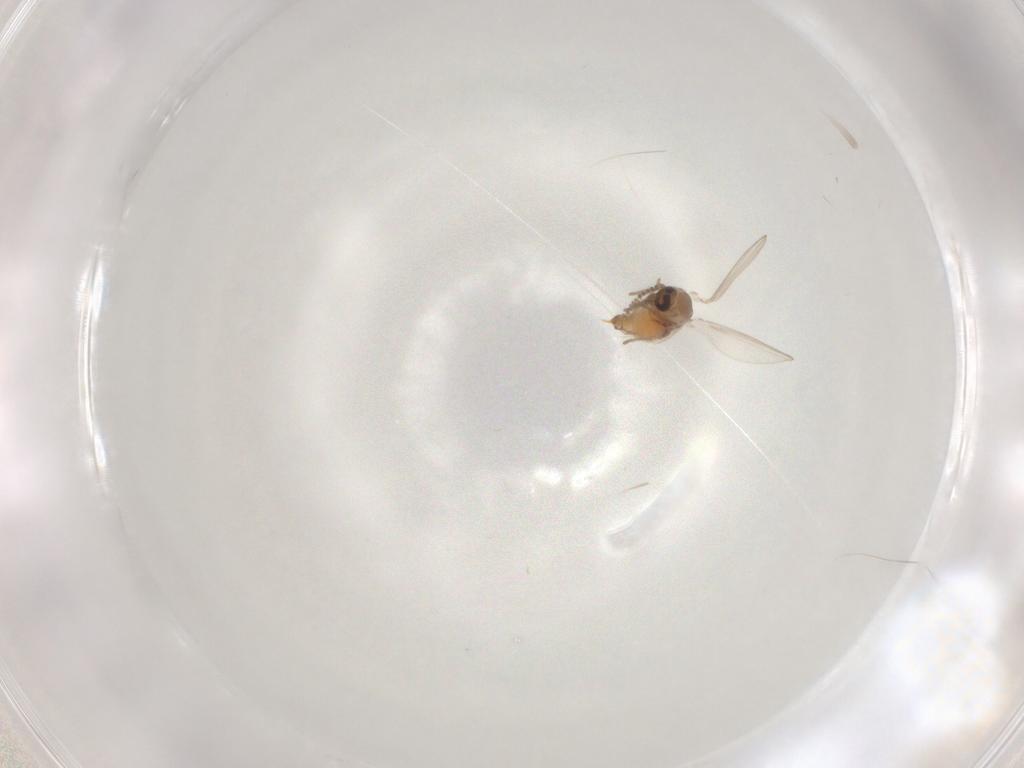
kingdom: Animalia
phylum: Arthropoda
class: Insecta
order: Diptera
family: Psychodidae
